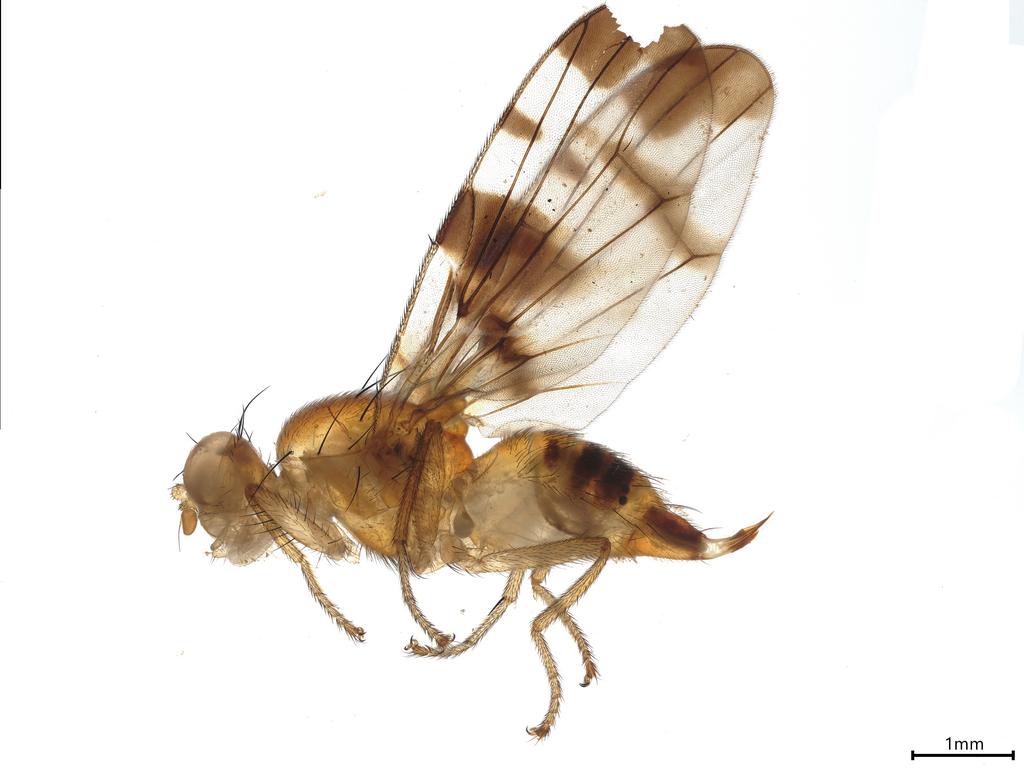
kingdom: Animalia
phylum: Arthropoda
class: Insecta
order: Diptera
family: Tephritidae
